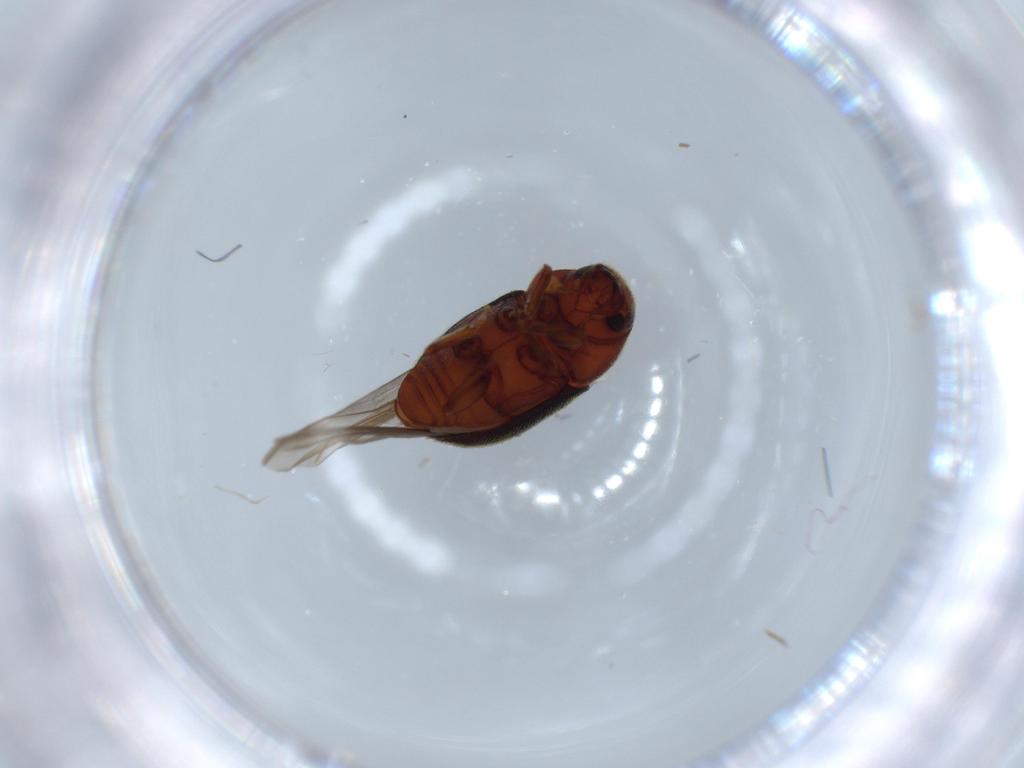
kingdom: Animalia
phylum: Arthropoda
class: Insecta
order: Coleoptera
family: Curculionidae
